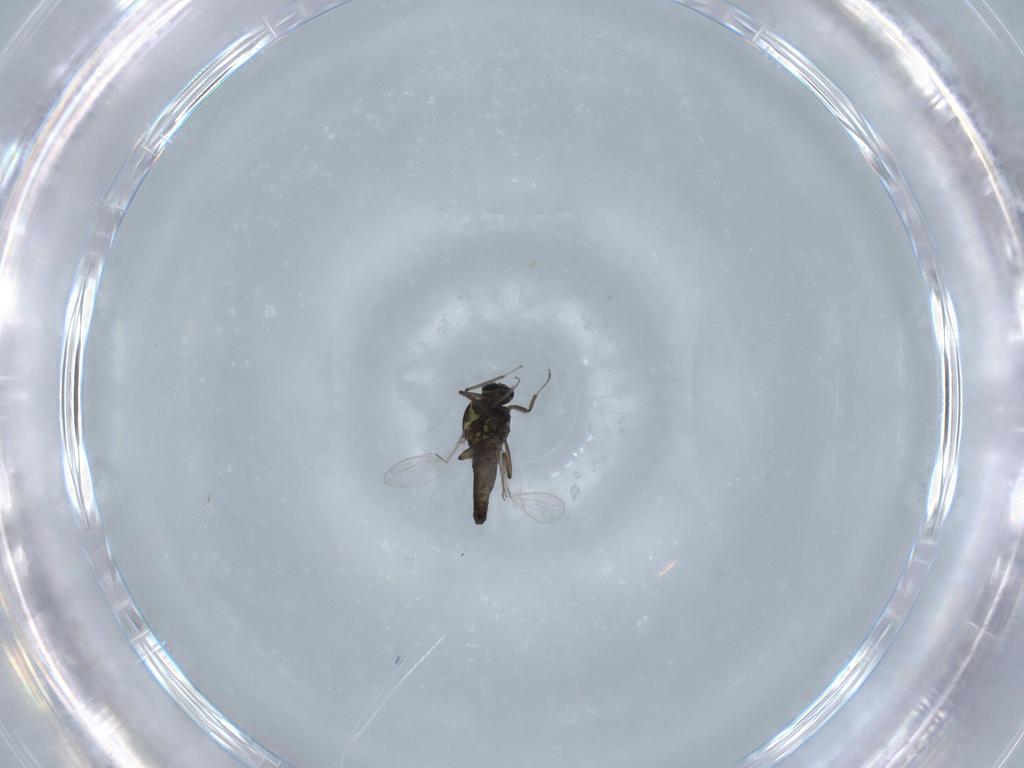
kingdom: Animalia
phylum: Arthropoda
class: Insecta
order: Diptera
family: Ceratopogonidae
